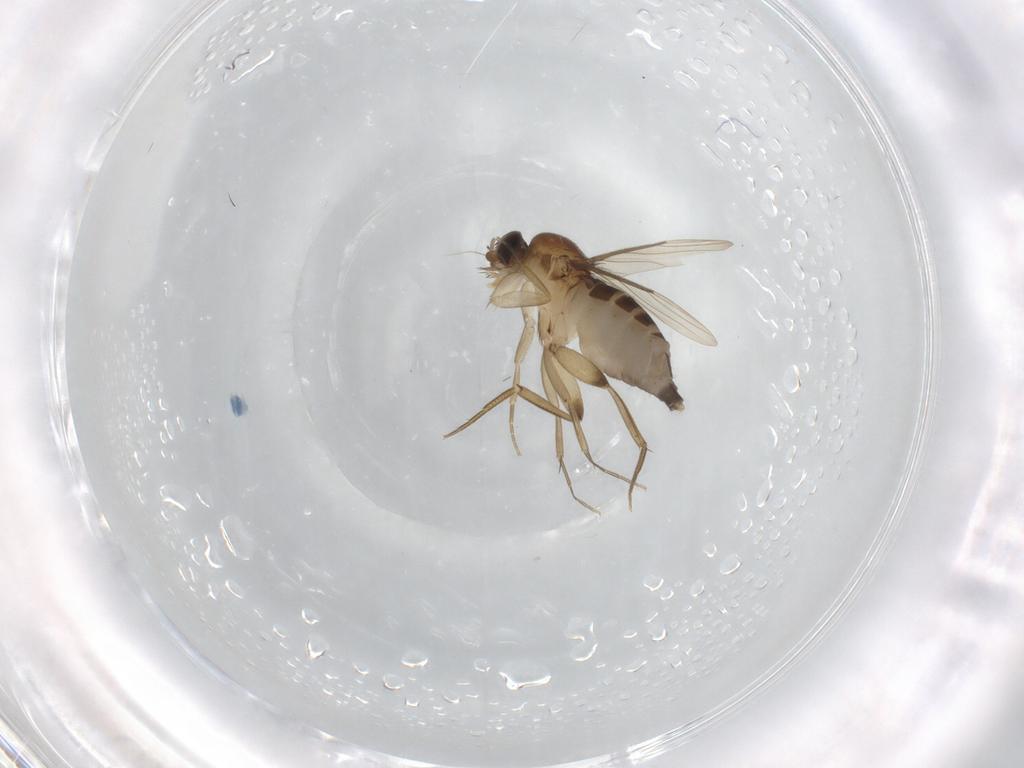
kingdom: Animalia
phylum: Arthropoda
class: Insecta
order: Diptera
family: Phoridae
